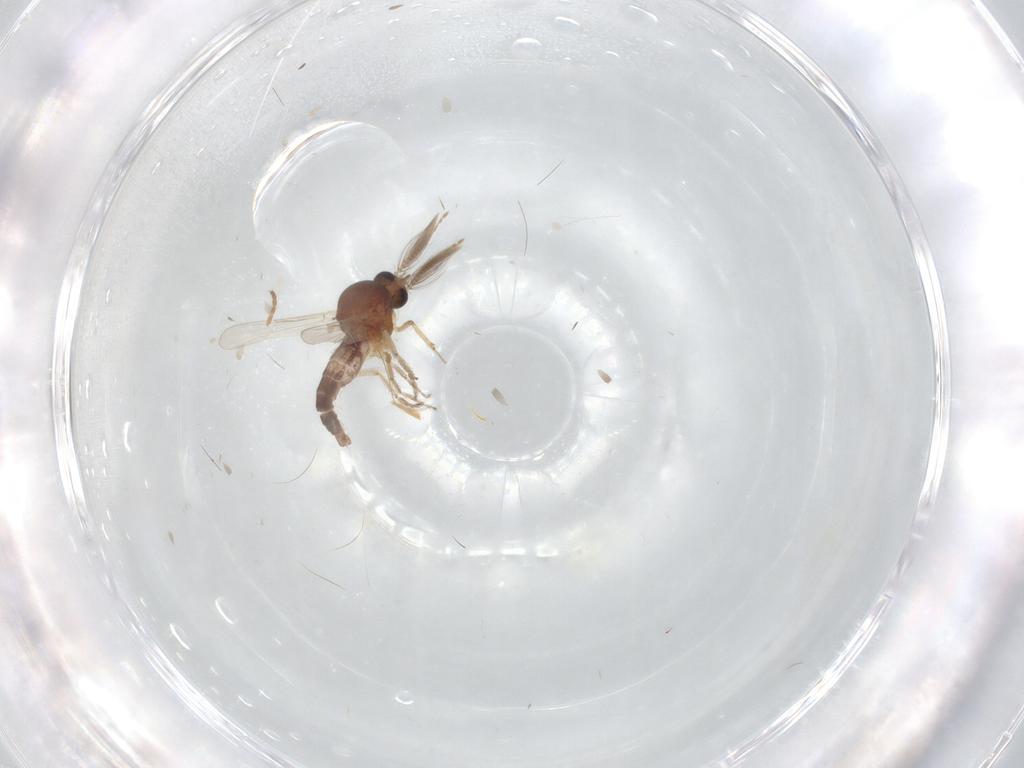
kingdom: Animalia
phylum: Arthropoda
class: Insecta
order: Diptera
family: Ceratopogonidae
